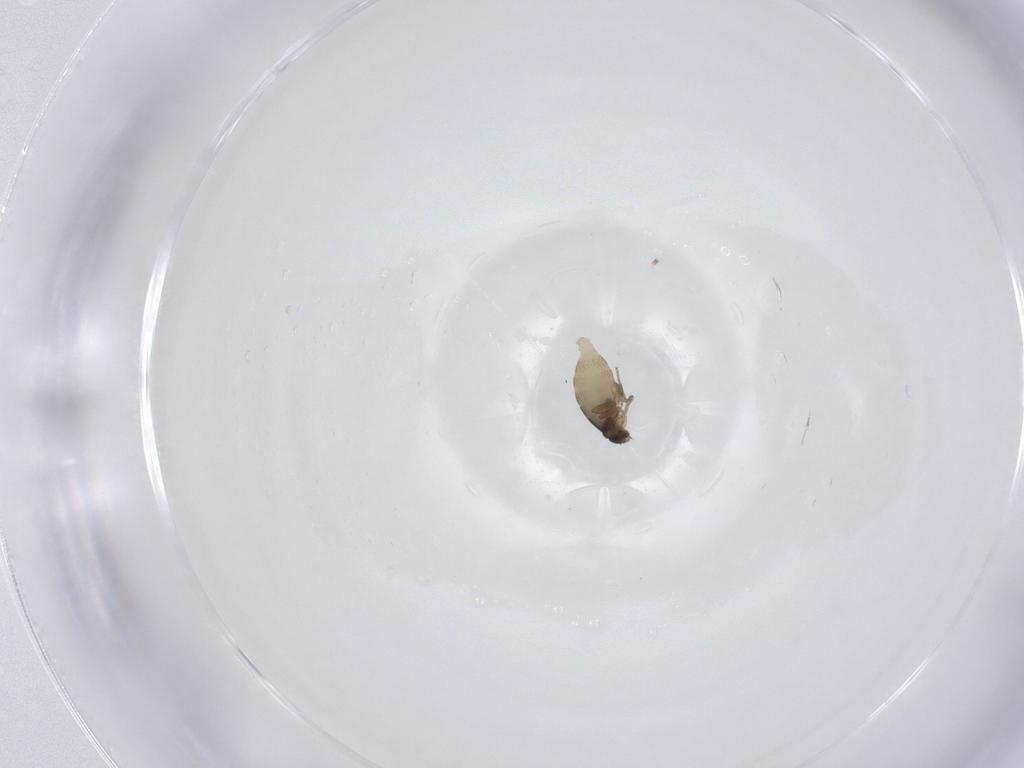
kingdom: Animalia
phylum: Arthropoda
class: Insecta
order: Diptera
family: Phoridae
